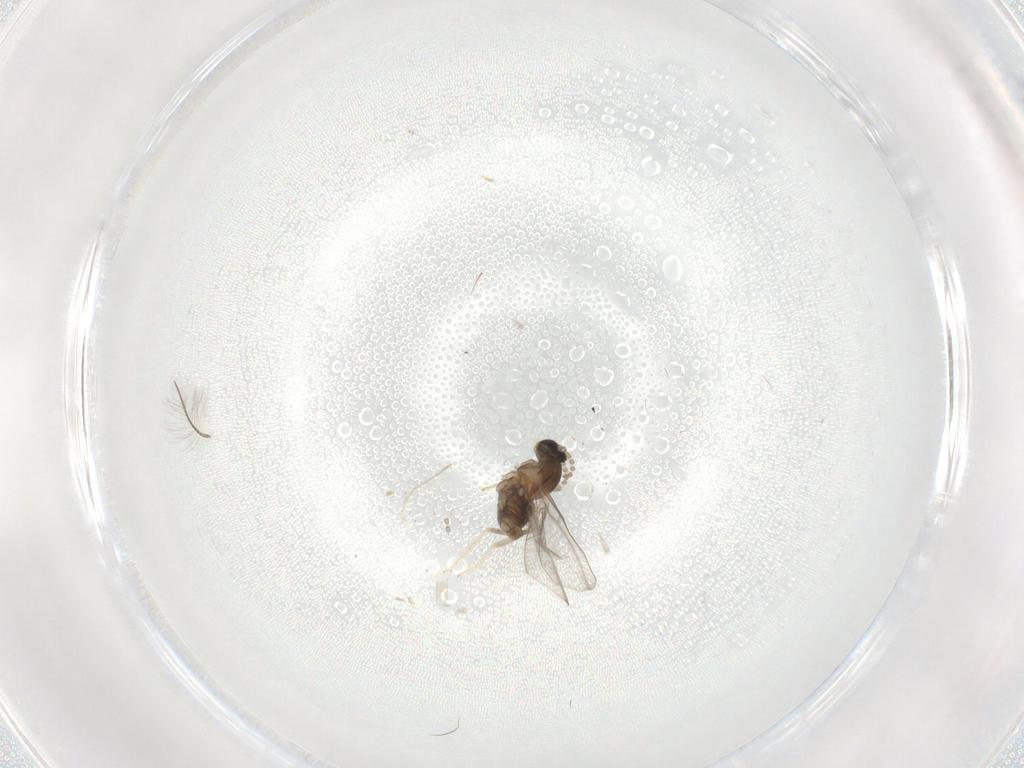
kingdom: Animalia
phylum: Arthropoda
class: Insecta
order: Diptera
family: Cecidomyiidae
